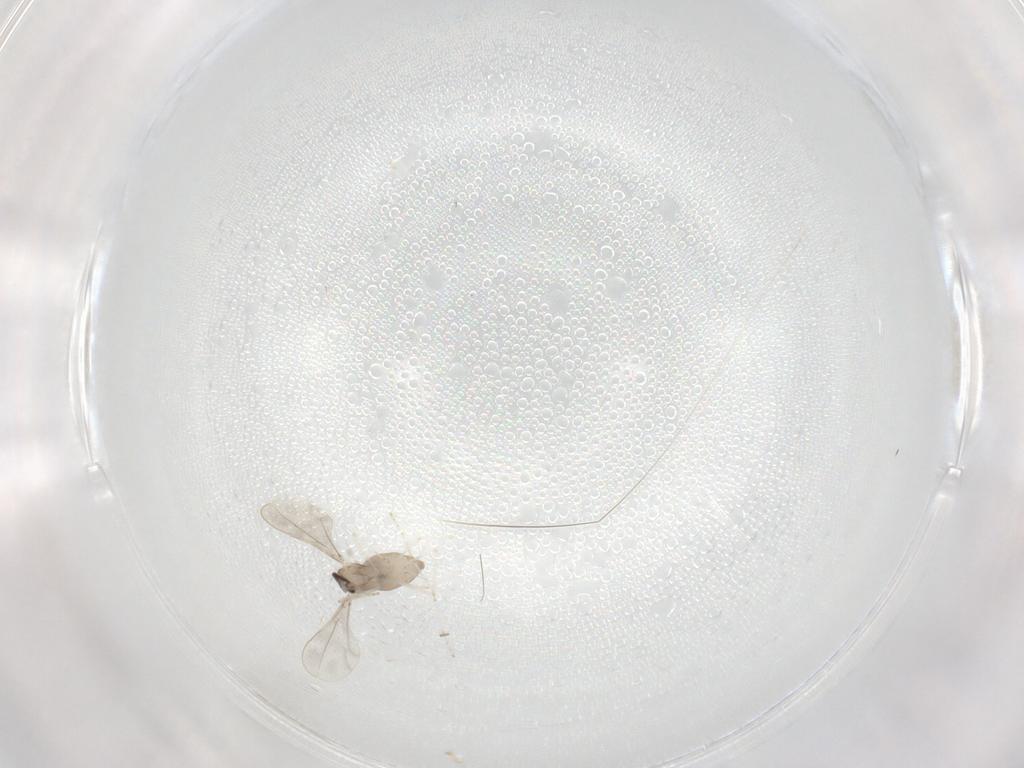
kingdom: Animalia
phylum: Arthropoda
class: Insecta
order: Diptera
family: Cecidomyiidae
